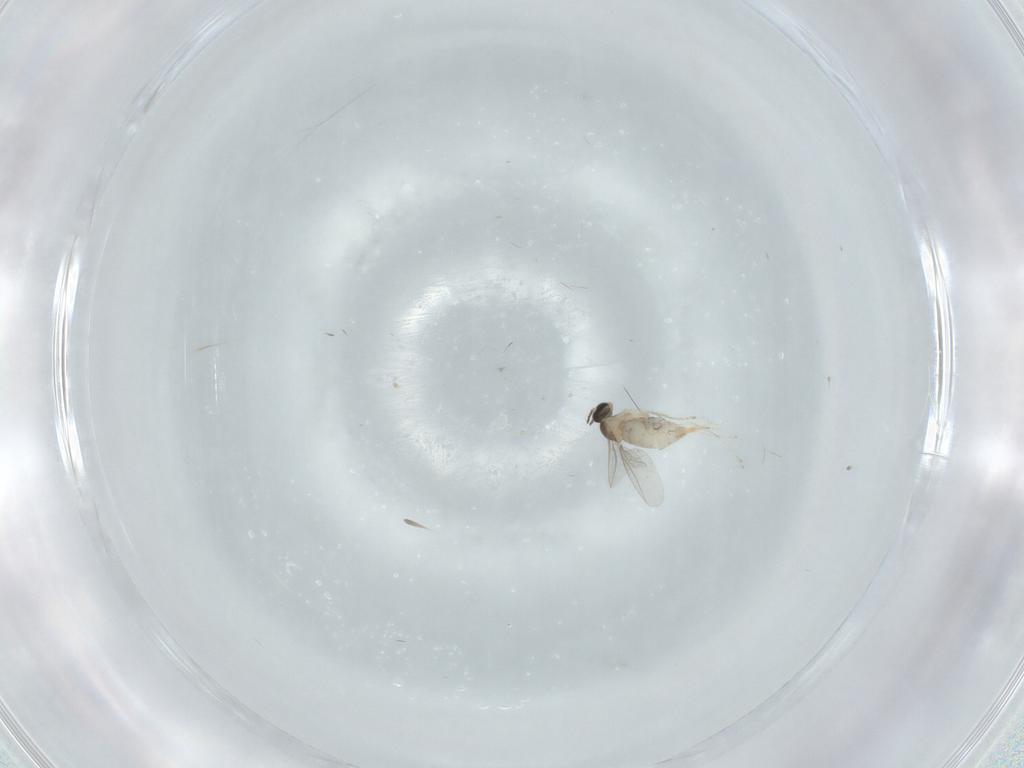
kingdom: Animalia
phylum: Arthropoda
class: Insecta
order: Diptera
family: Cecidomyiidae
